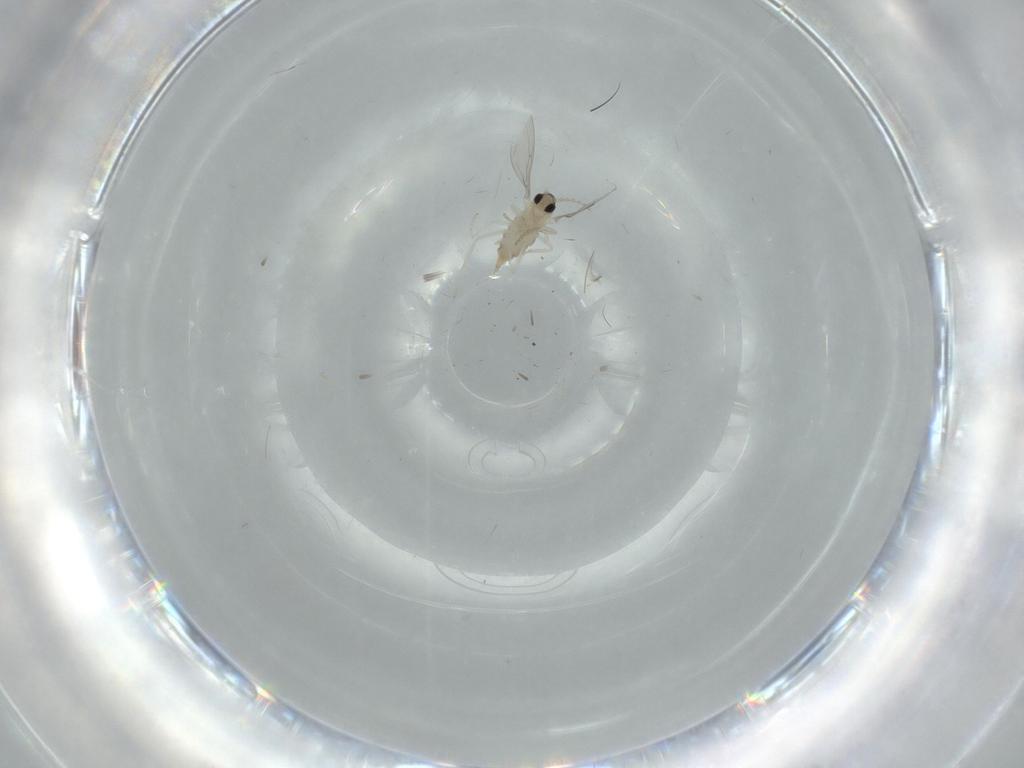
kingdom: Animalia
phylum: Arthropoda
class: Insecta
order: Diptera
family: Cecidomyiidae
